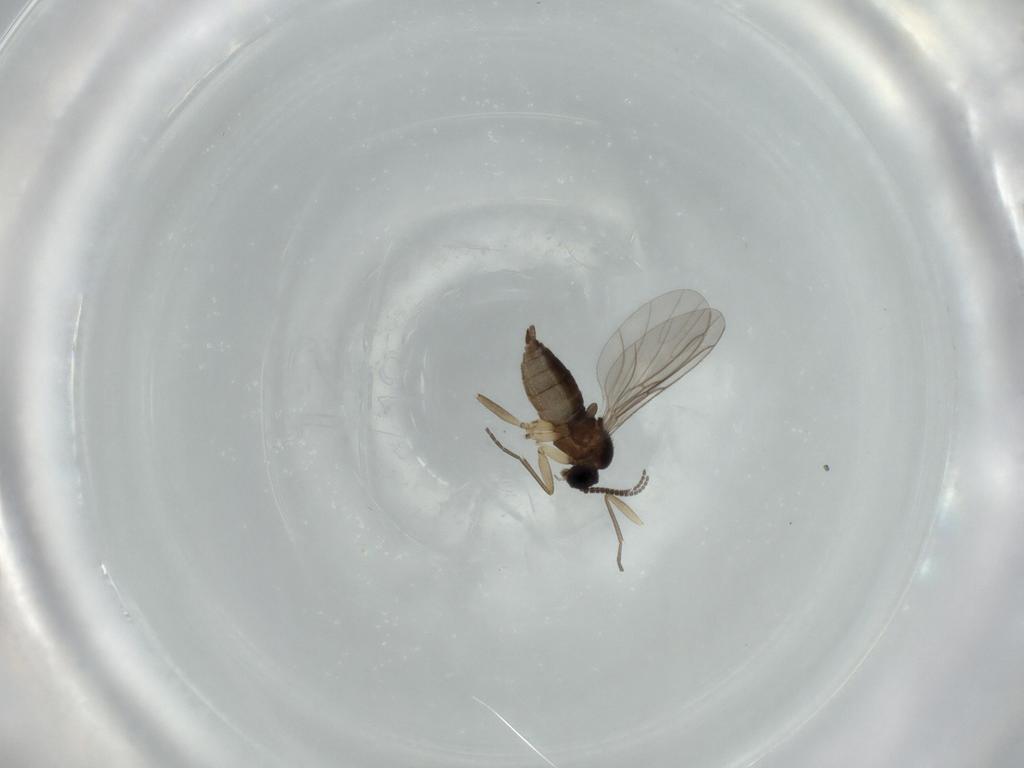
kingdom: Animalia
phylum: Arthropoda
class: Insecta
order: Diptera
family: Sciaridae
